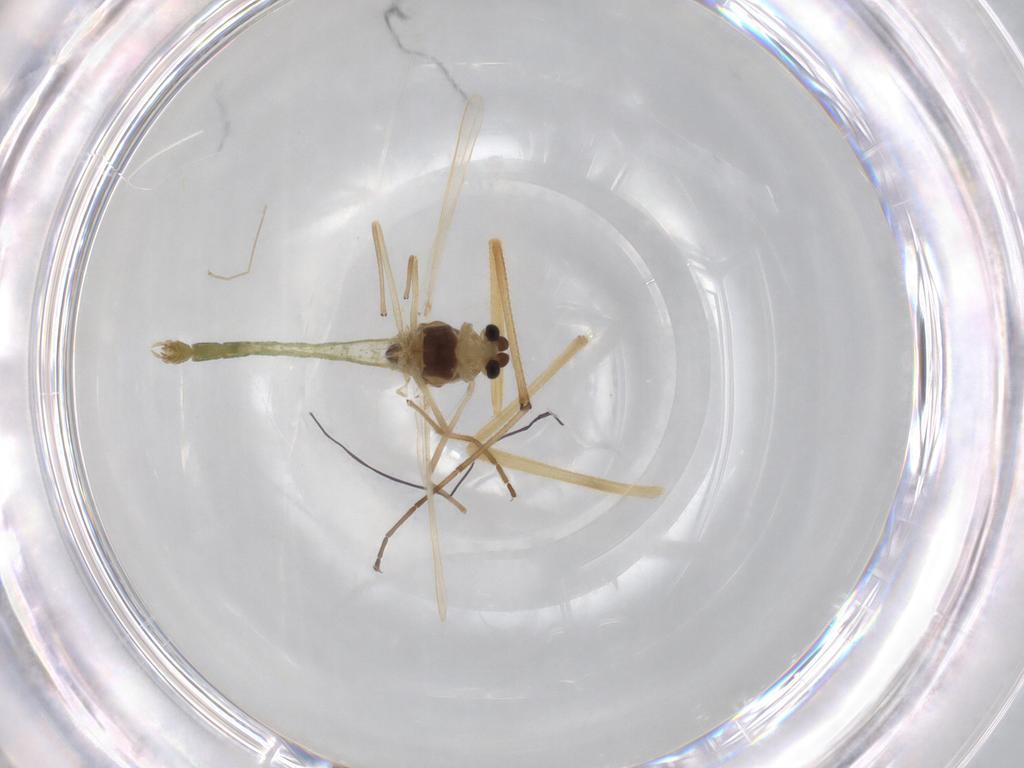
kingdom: Animalia
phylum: Arthropoda
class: Insecta
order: Diptera
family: Chironomidae
